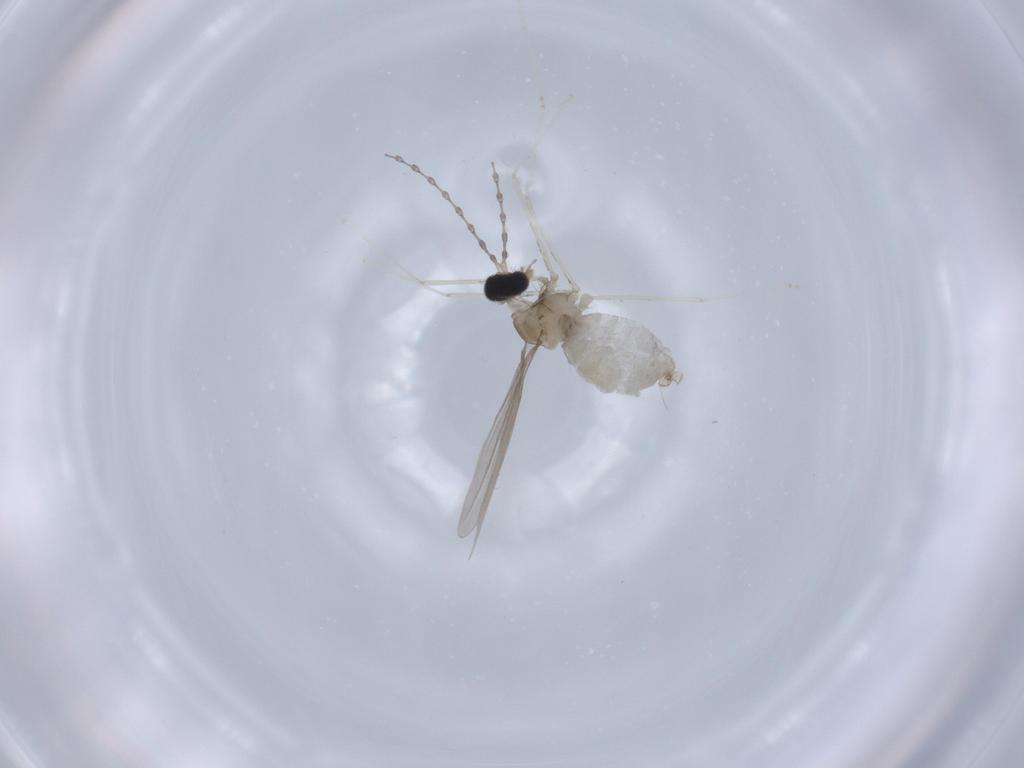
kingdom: Animalia
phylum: Arthropoda
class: Insecta
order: Diptera
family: Cecidomyiidae
